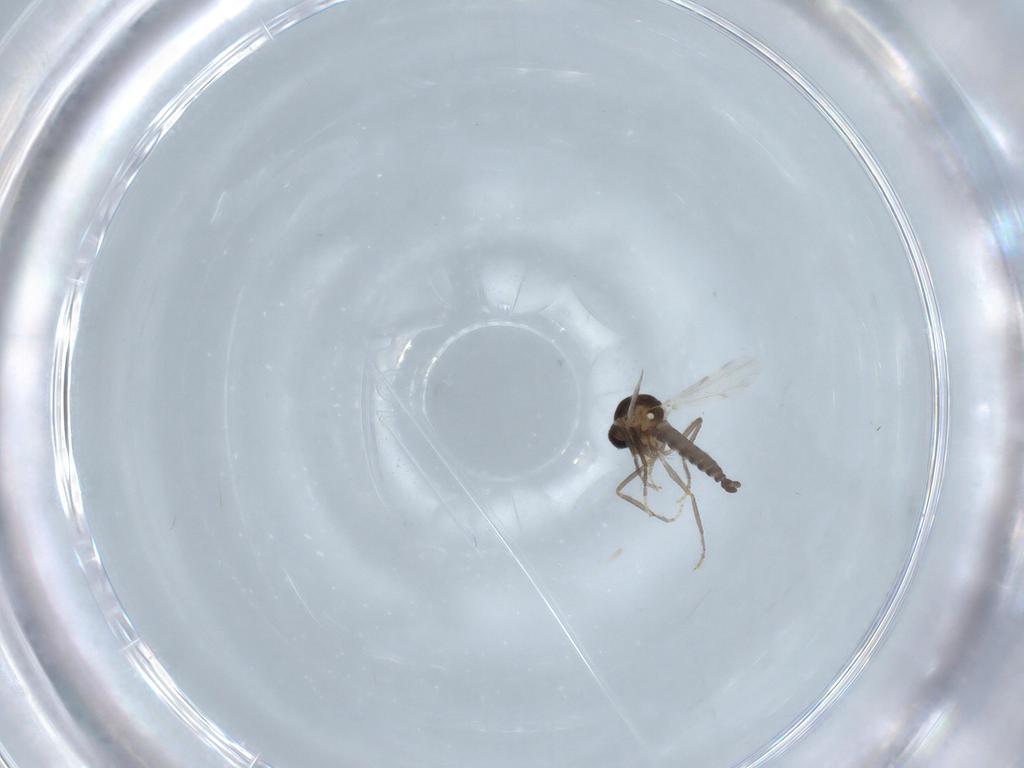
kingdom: Animalia
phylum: Arthropoda
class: Insecta
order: Diptera
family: Ceratopogonidae
